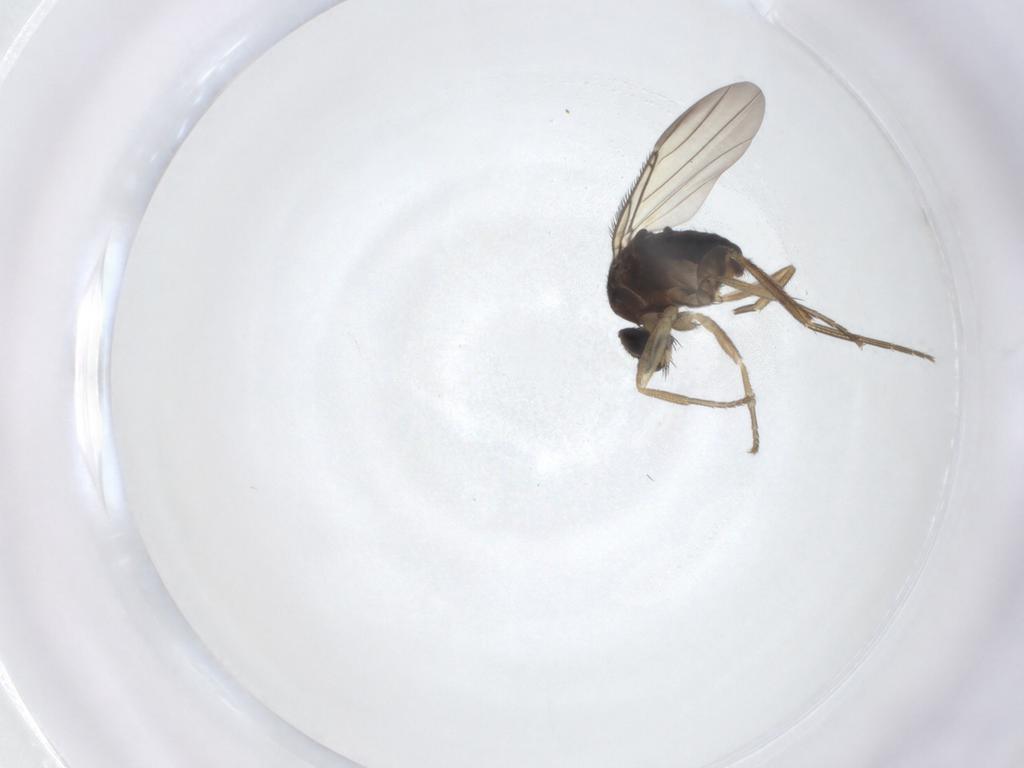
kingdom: Animalia
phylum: Arthropoda
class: Insecta
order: Diptera
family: Phoridae
